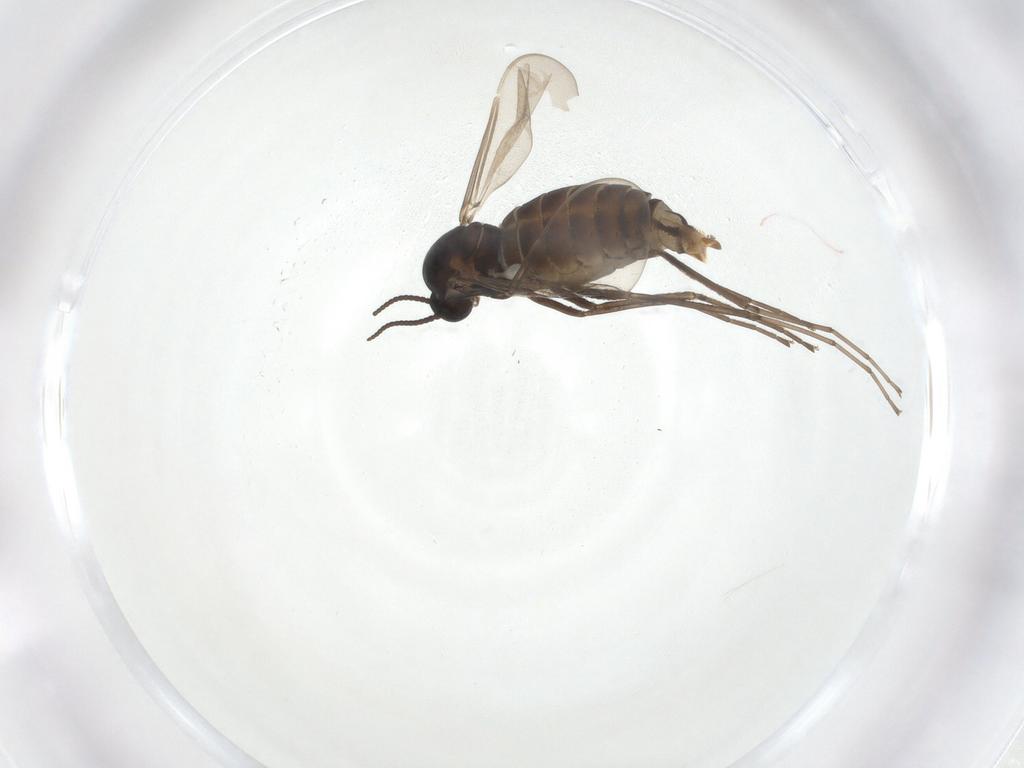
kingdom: Animalia
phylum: Arthropoda
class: Insecta
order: Diptera
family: Cecidomyiidae
